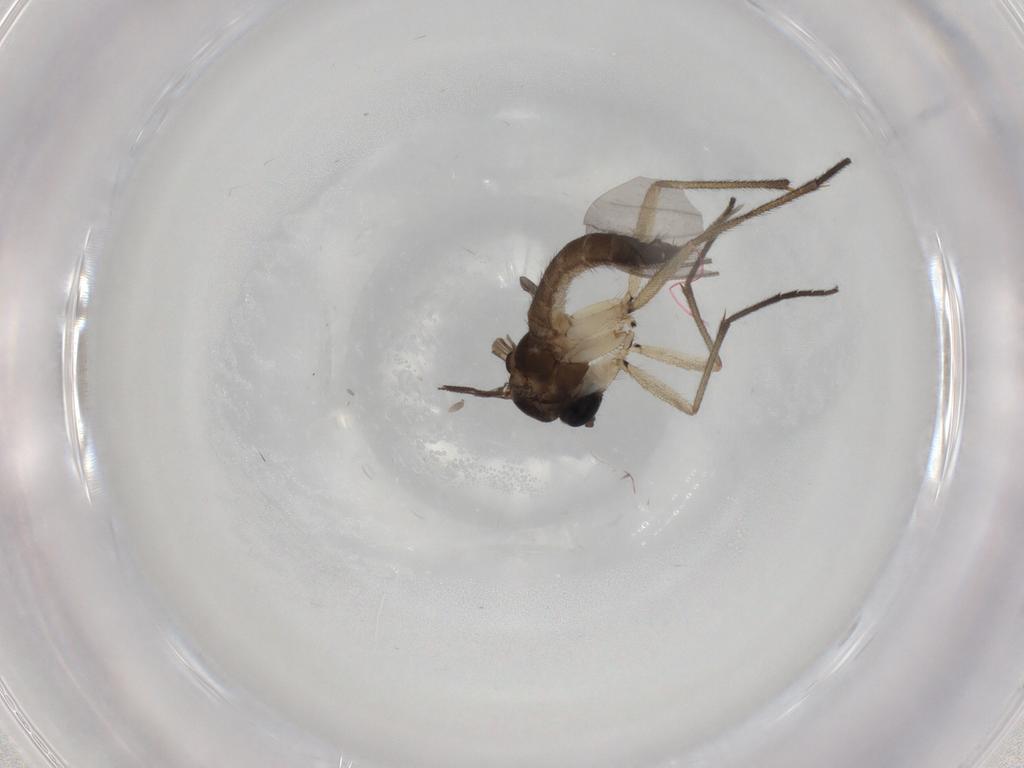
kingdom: Animalia
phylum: Arthropoda
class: Insecta
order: Diptera
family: Sciaridae
